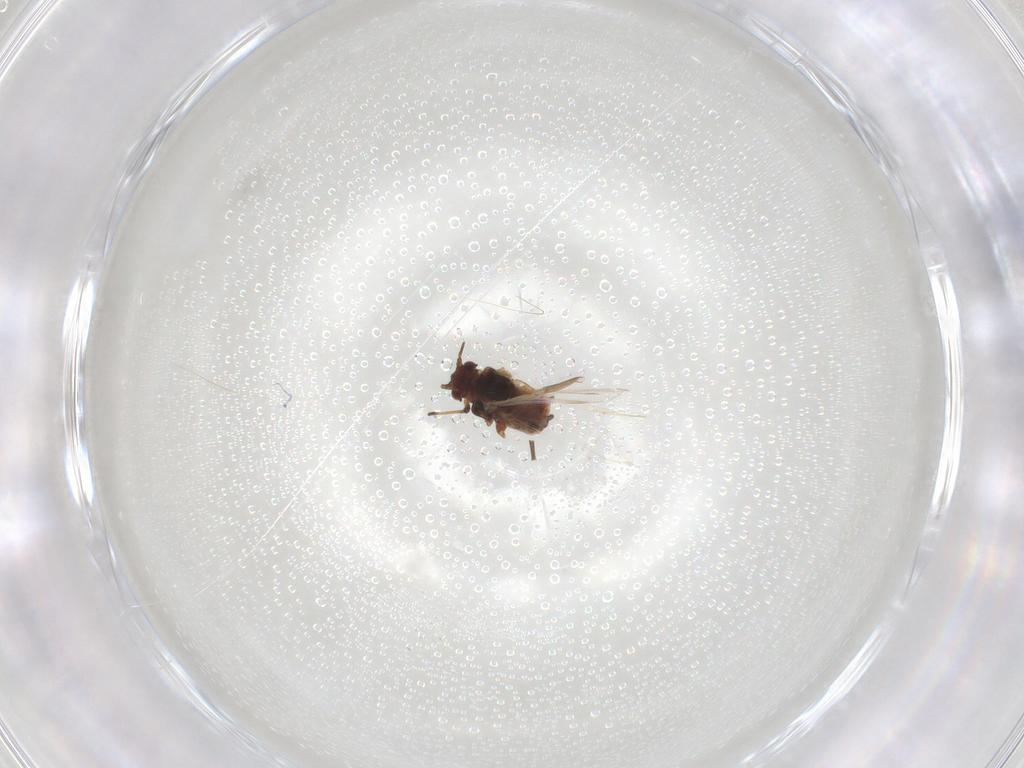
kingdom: Animalia
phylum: Arthropoda
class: Insecta
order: Hemiptera
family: Aphididae
